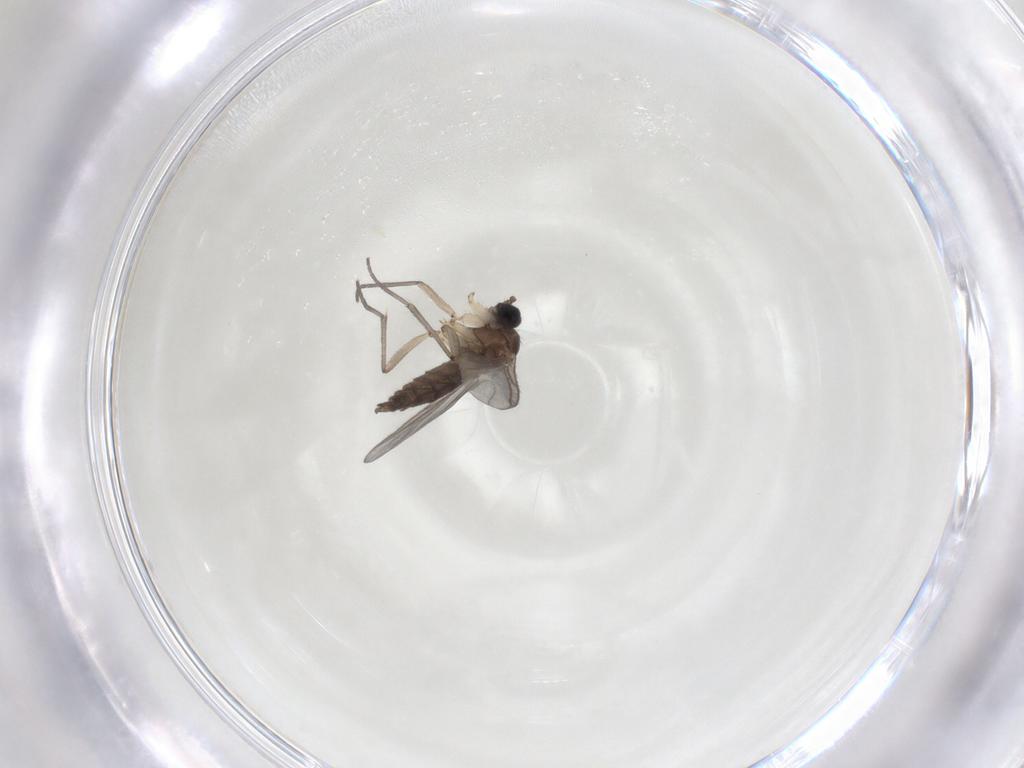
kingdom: Animalia
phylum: Arthropoda
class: Insecta
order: Diptera
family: Sciaridae
